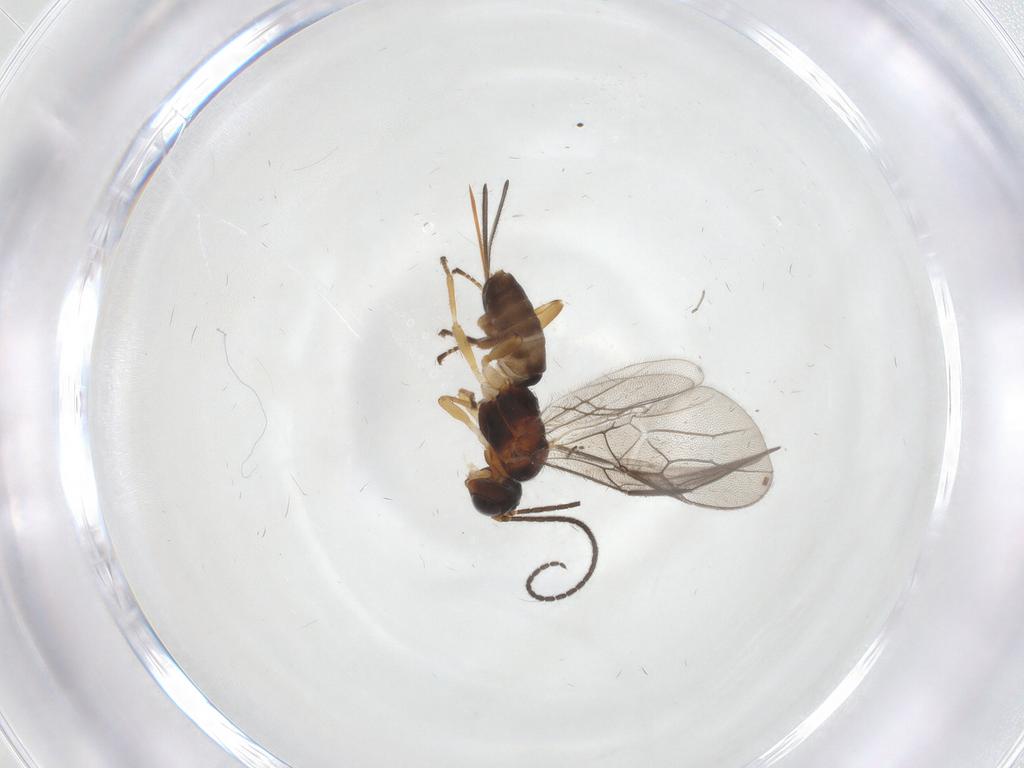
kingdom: Animalia
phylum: Arthropoda
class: Insecta
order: Hymenoptera
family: Braconidae
